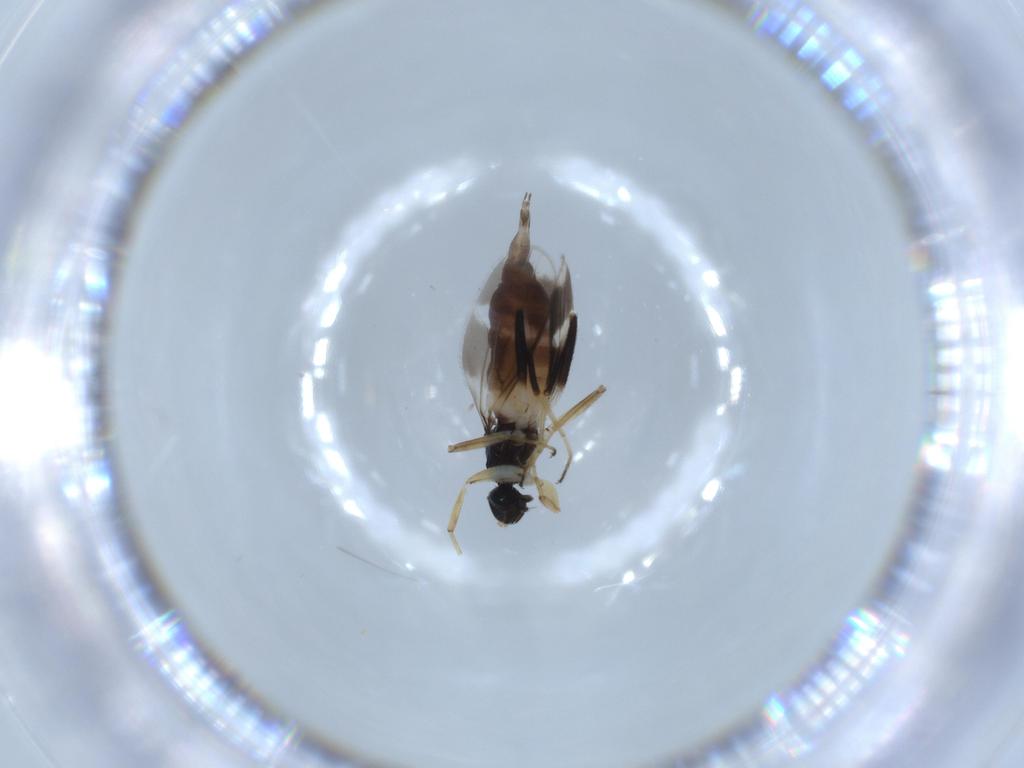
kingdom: Animalia
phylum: Arthropoda
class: Insecta
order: Diptera
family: Hybotidae
